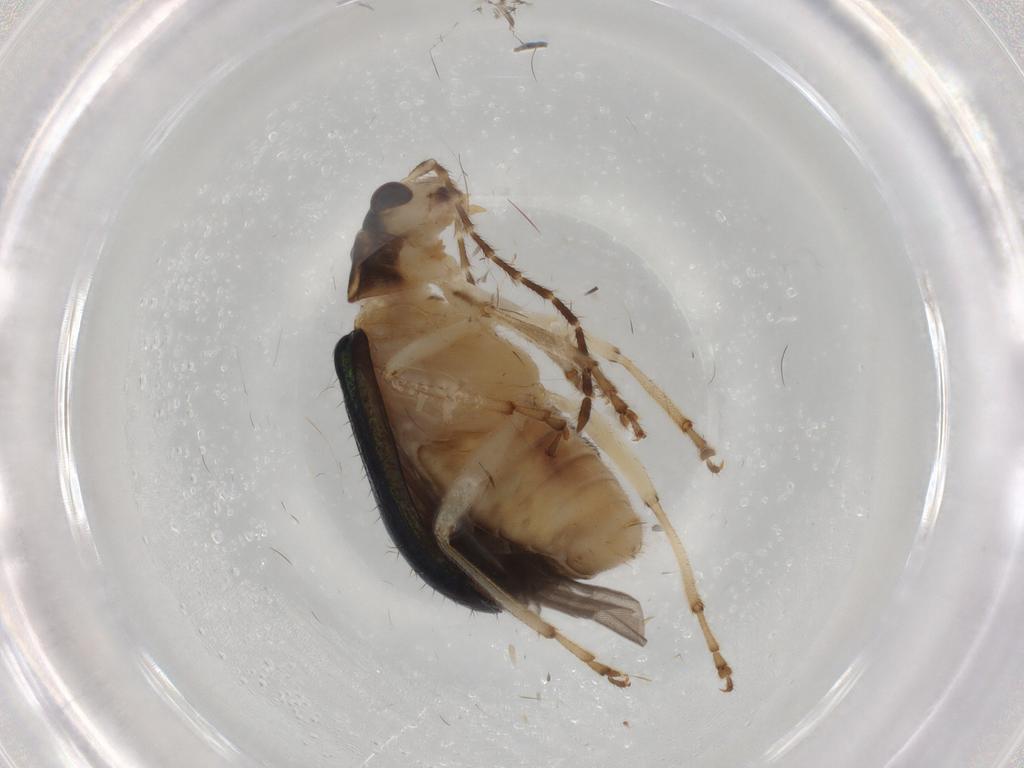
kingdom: Animalia
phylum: Arthropoda
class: Insecta
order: Coleoptera
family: Chrysomelidae
